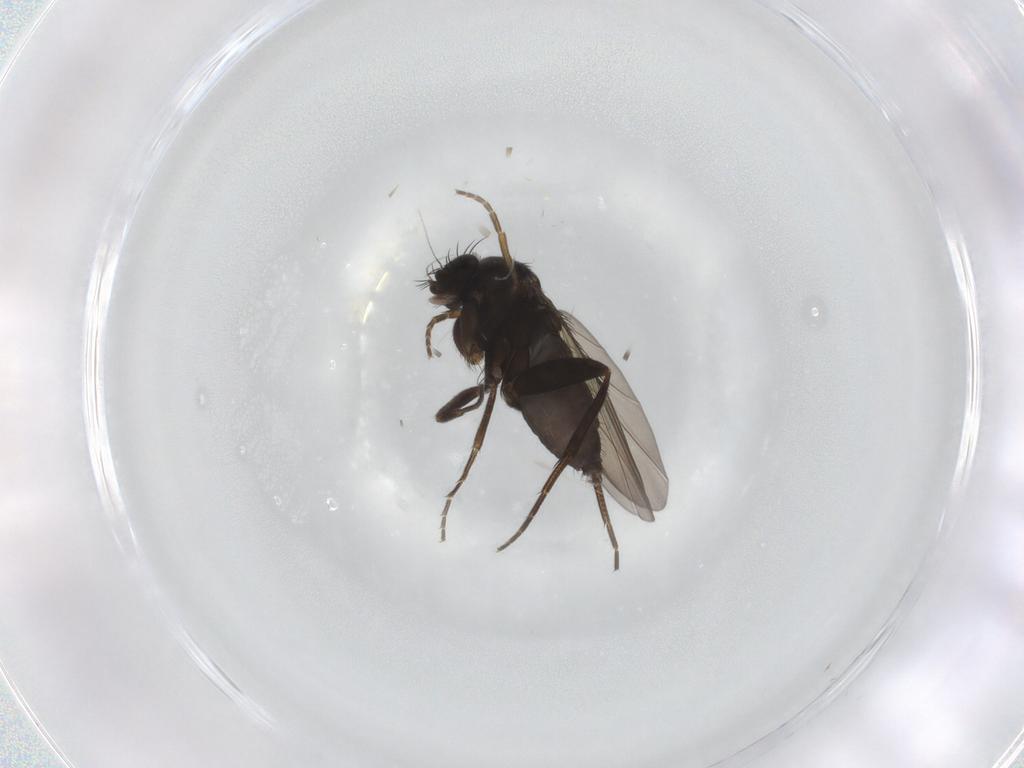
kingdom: Animalia
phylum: Arthropoda
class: Insecta
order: Diptera
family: Phoridae
